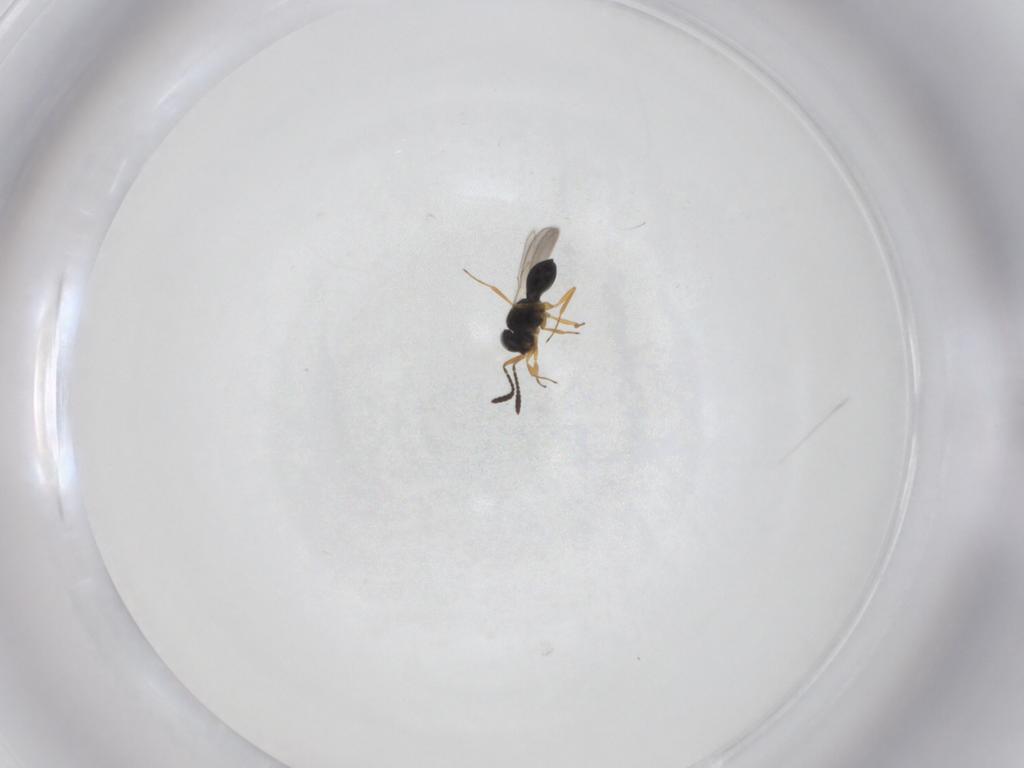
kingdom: Animalia
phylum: Arthropoda
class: Insecta
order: Hymenoptera
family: Scelionidae
